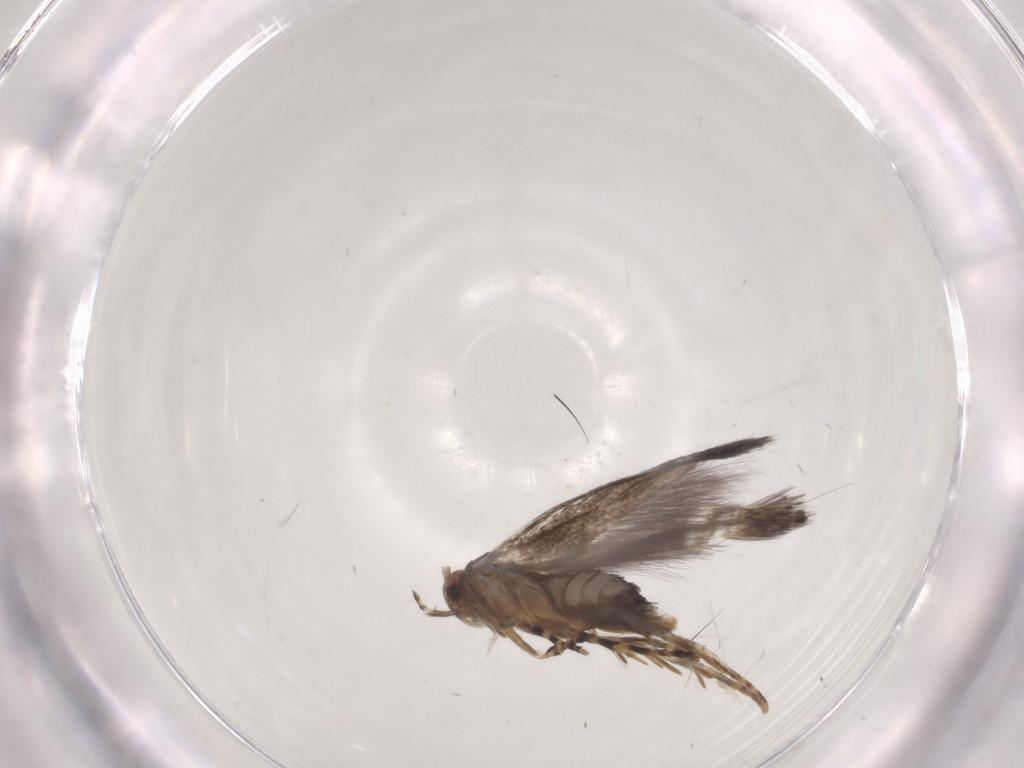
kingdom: Animalia
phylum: Arthropoda
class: Insecta
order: Lepidoptera
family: Elachistidae
